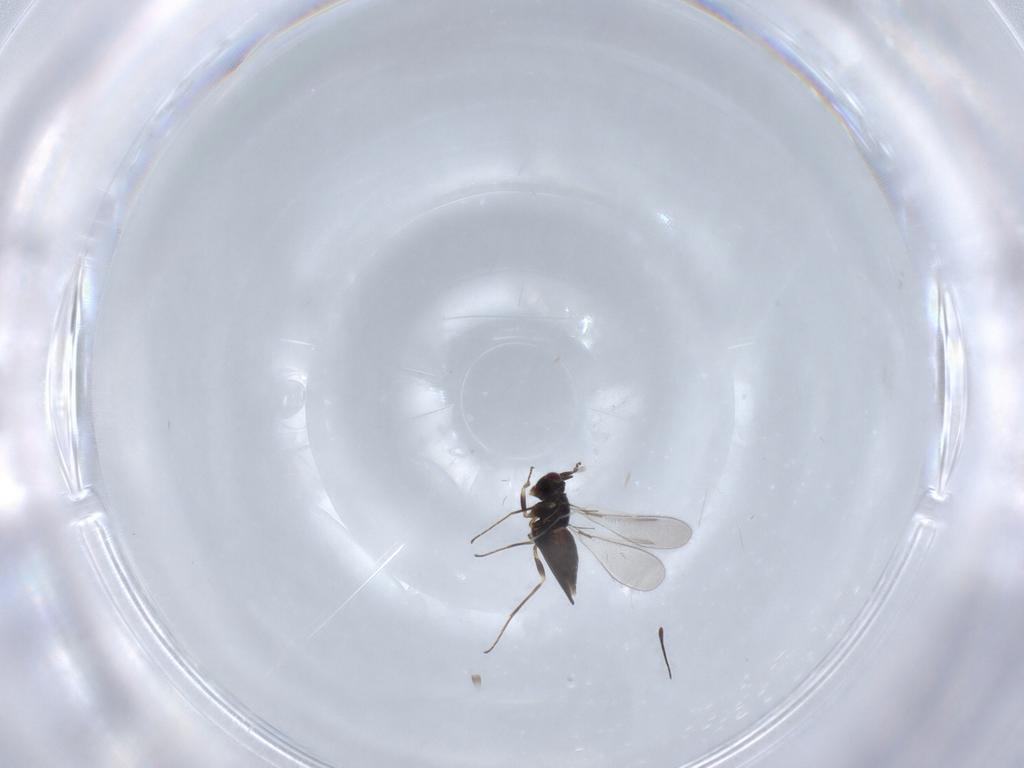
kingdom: Animalia
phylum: Arthropoda
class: Insecta
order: Hymenoptera
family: Mymaridae
